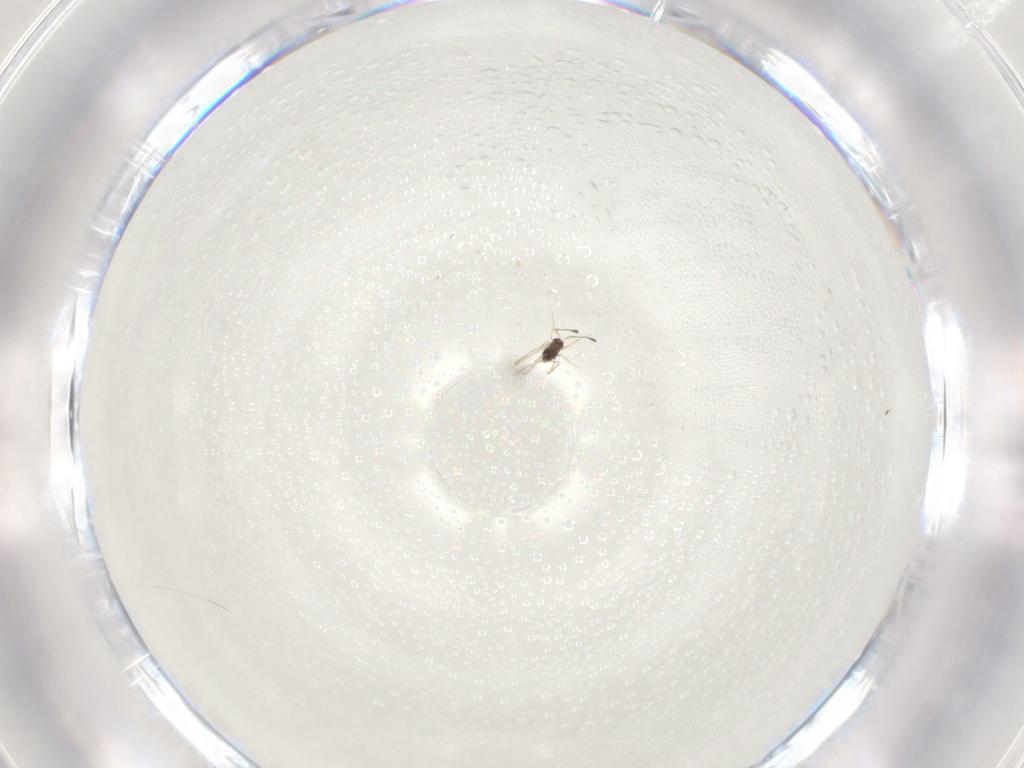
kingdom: Animalia
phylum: Arthropoda
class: Insecta
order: Hymenoptera
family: Mymaridae
